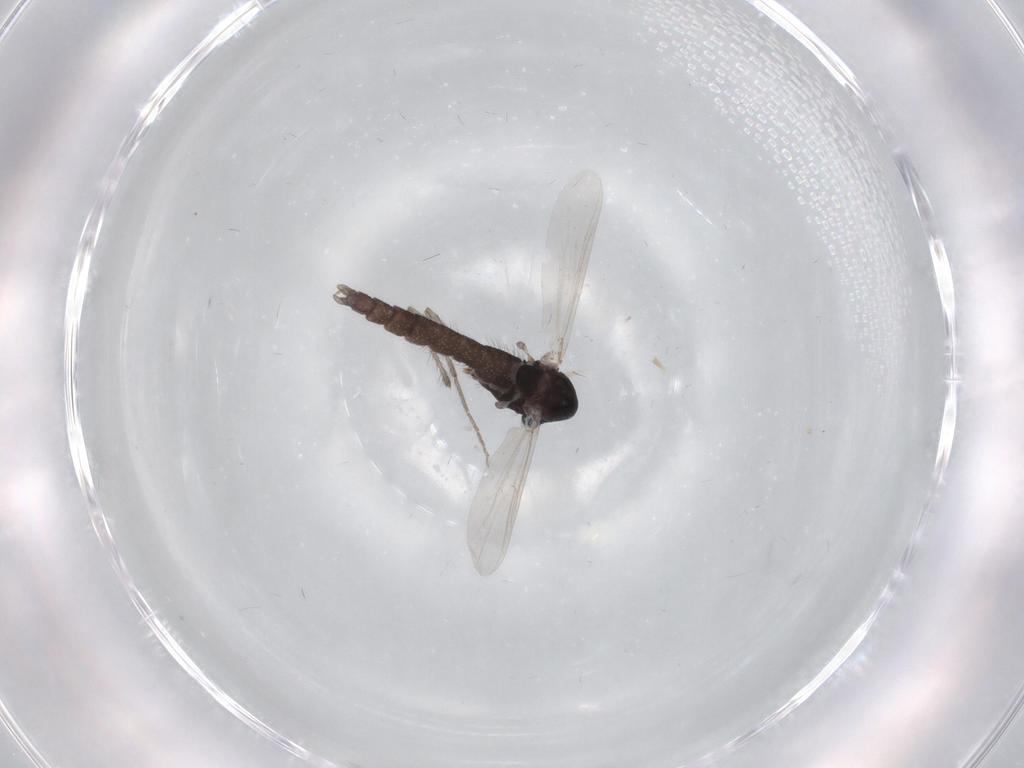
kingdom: Animalia
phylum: Arthropoda
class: Insecta
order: Diptera
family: Chironomidae
